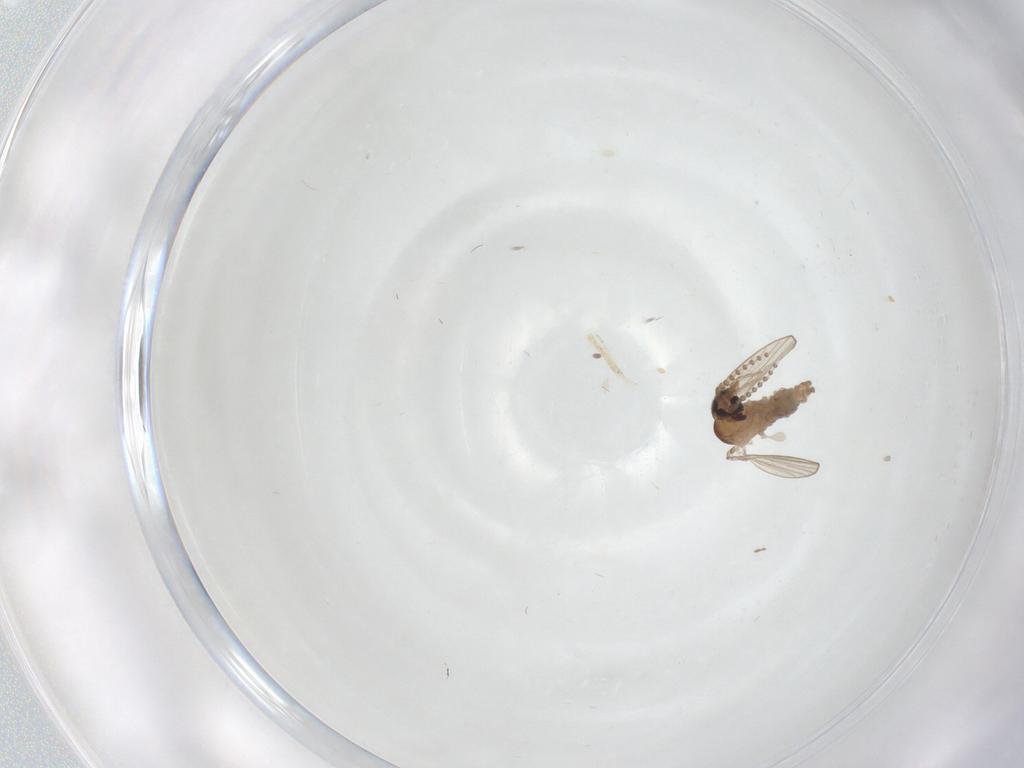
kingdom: Animalia
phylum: Arthropoda
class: Insecta
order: Diptera
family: Psychodidae
